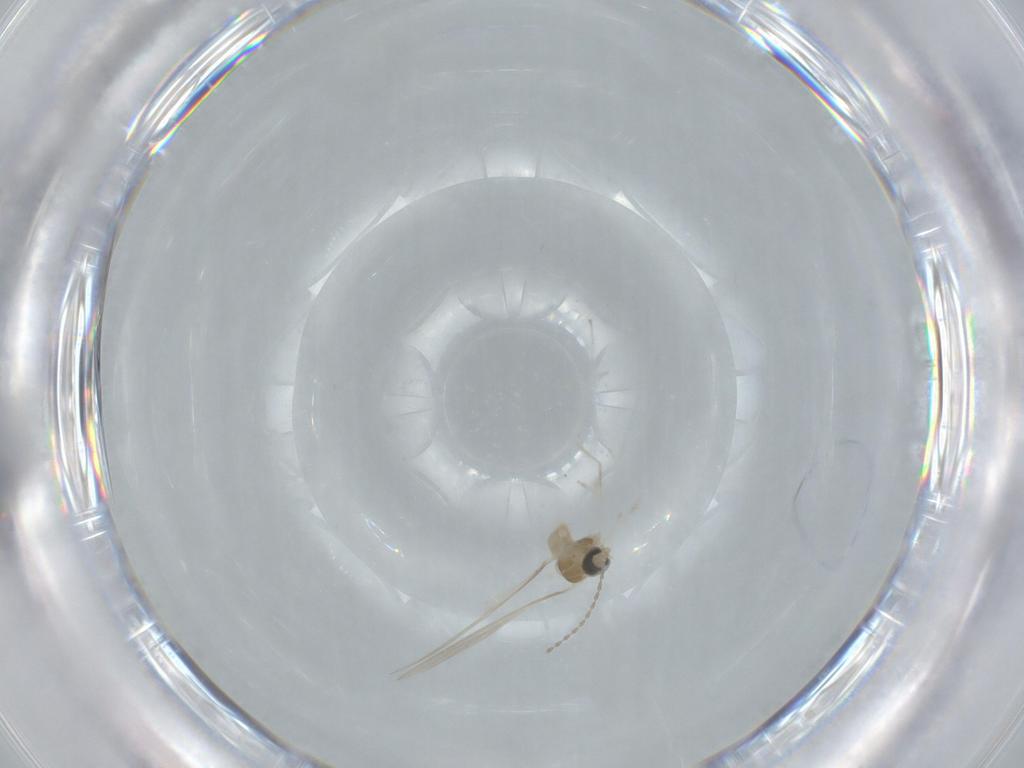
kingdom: Animalia
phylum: Arthropoda
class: Insecta
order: Diptera
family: Cecidomyiidae
